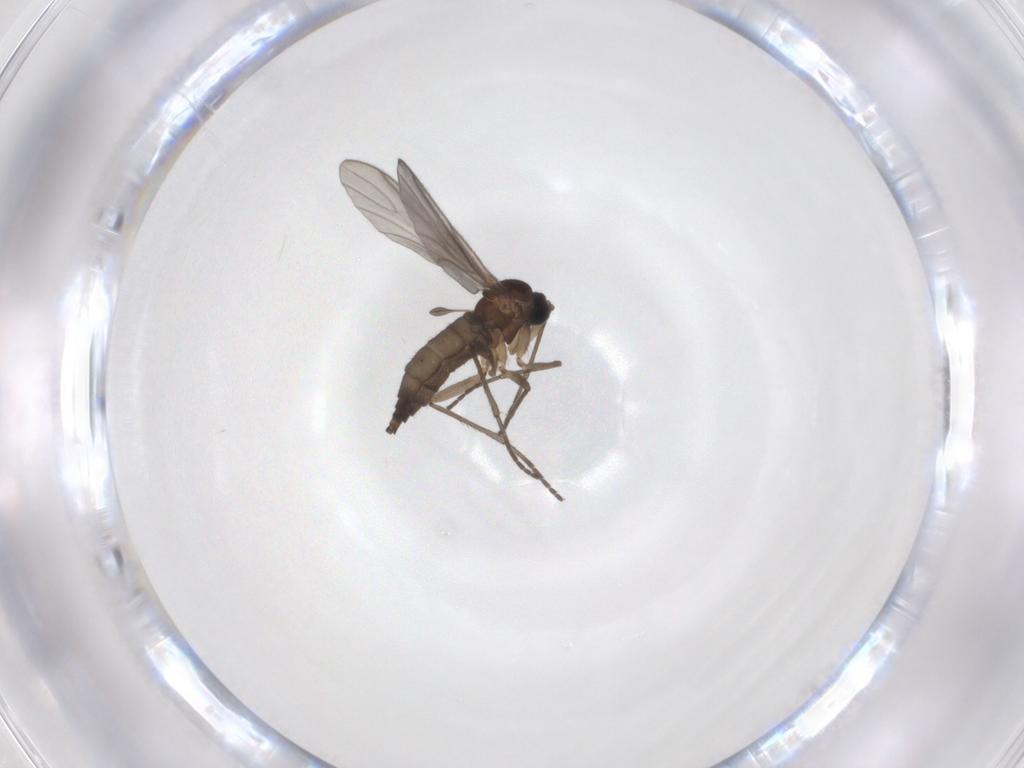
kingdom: Animalia
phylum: Arthropoda
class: Insecta
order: Diptera
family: Sciaridae
